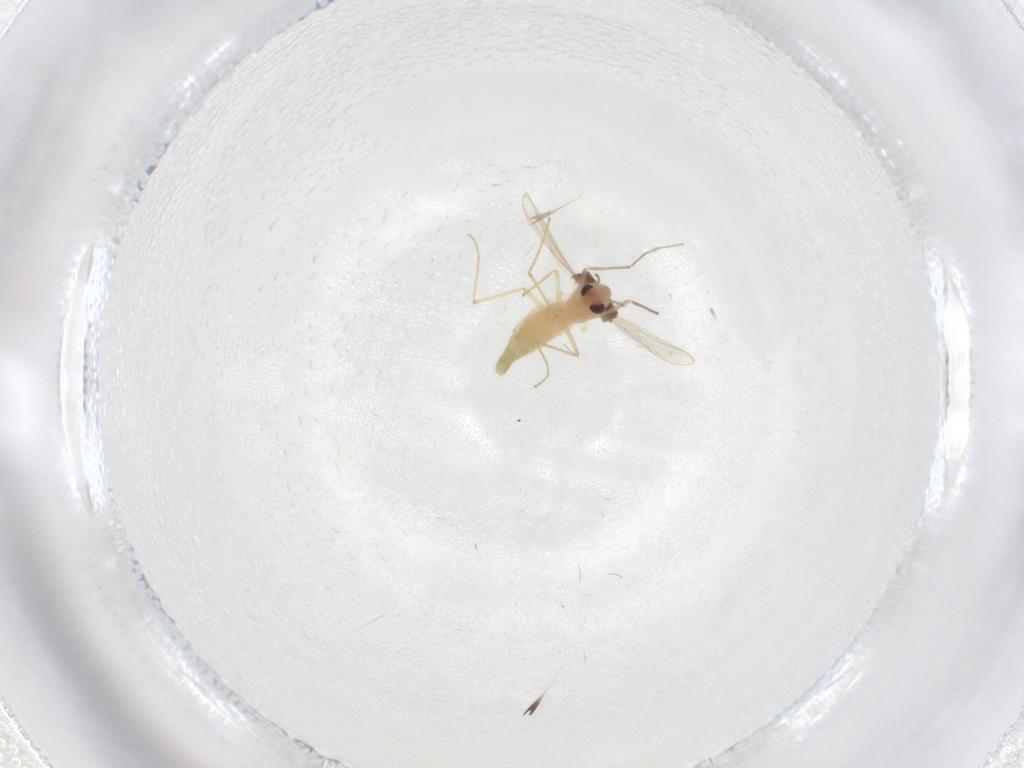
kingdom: Animalia
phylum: Arthropoda
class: Insecta
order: Diptera
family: Chironomidae
